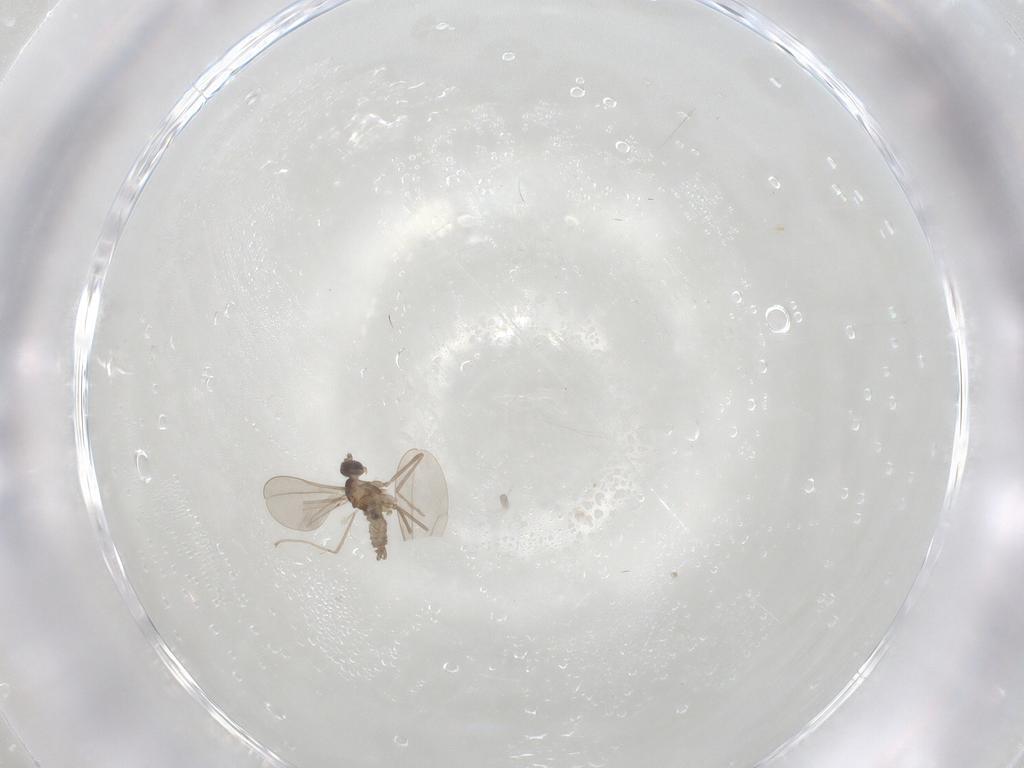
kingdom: Animalia
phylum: Arthropoda
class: Insecta
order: Diptera
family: Cecidomyiidae
